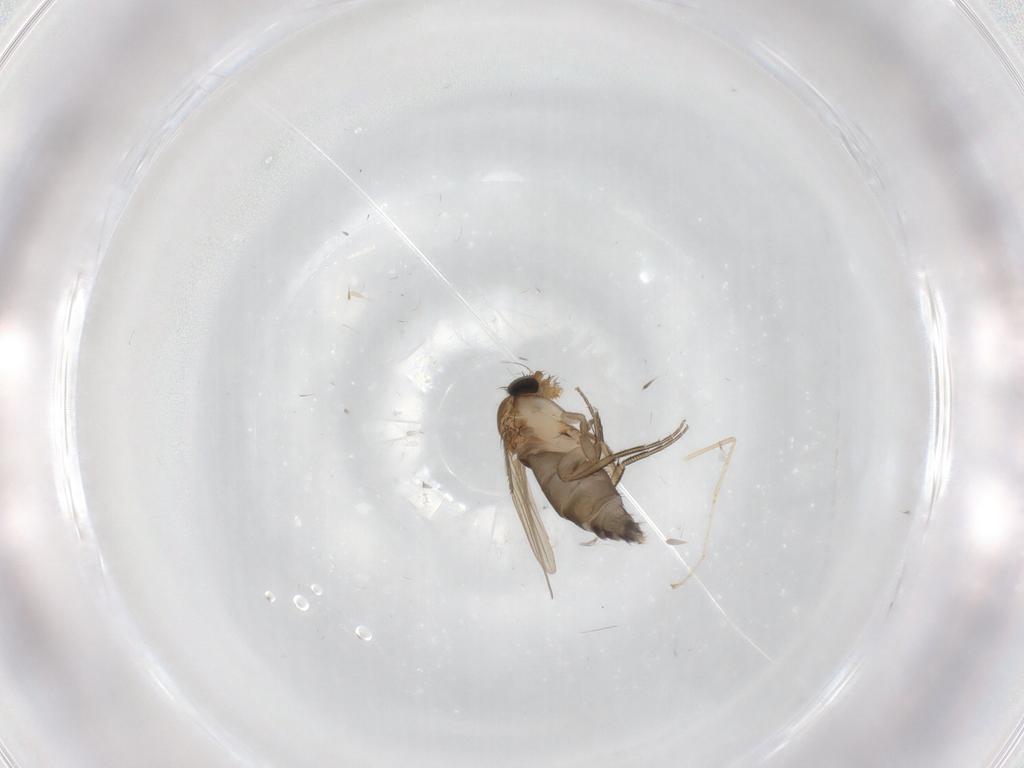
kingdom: Animalia
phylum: Arthropoda
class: Insecta
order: Diptera
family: Phoridae
